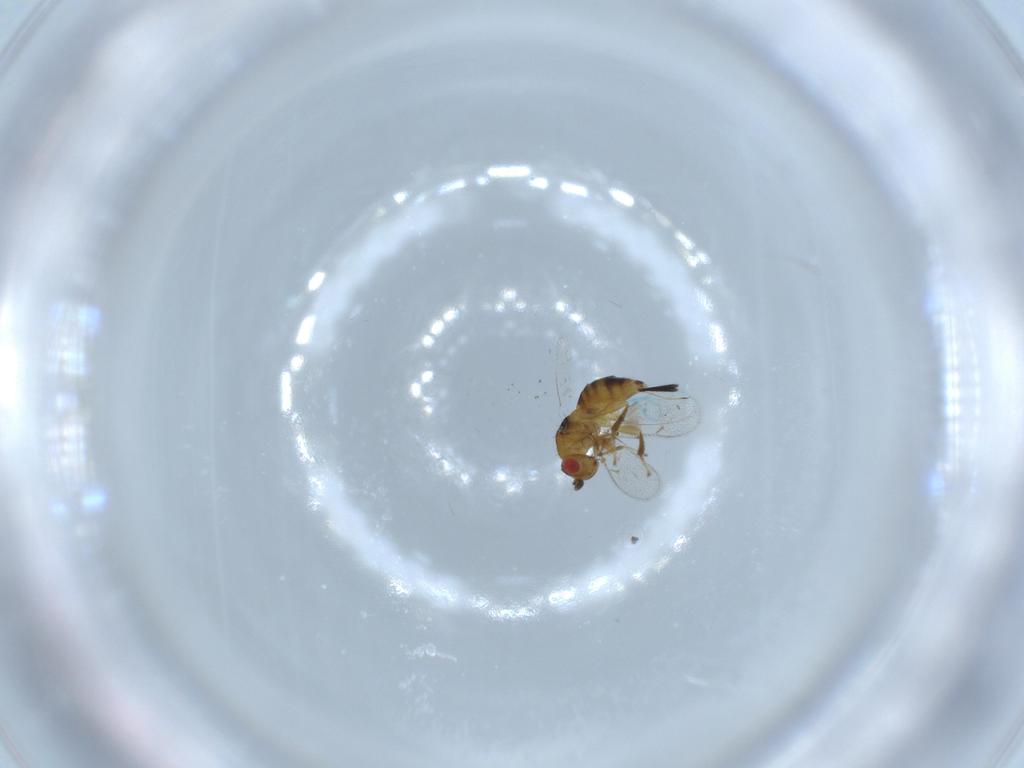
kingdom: Animalia
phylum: Arthropoda
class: Insecta
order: Hymenoptera
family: Torymidae
